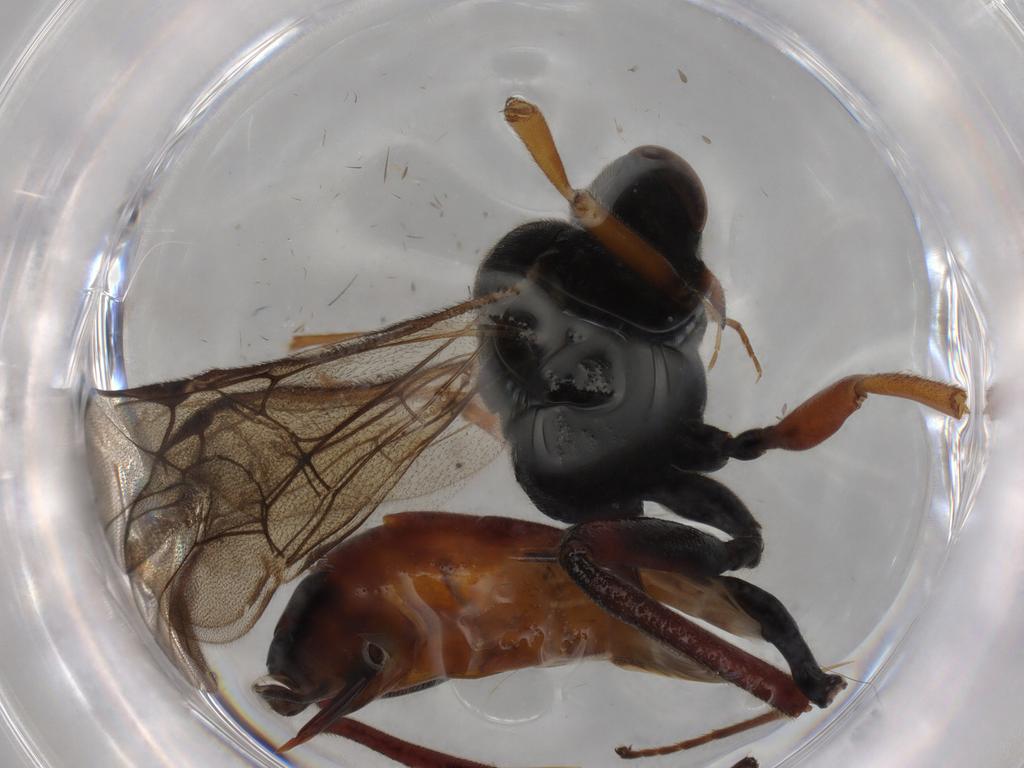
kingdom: Animalia
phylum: Arthropoda
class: Insecta
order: Hymenoptera
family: Ichneumonidae
